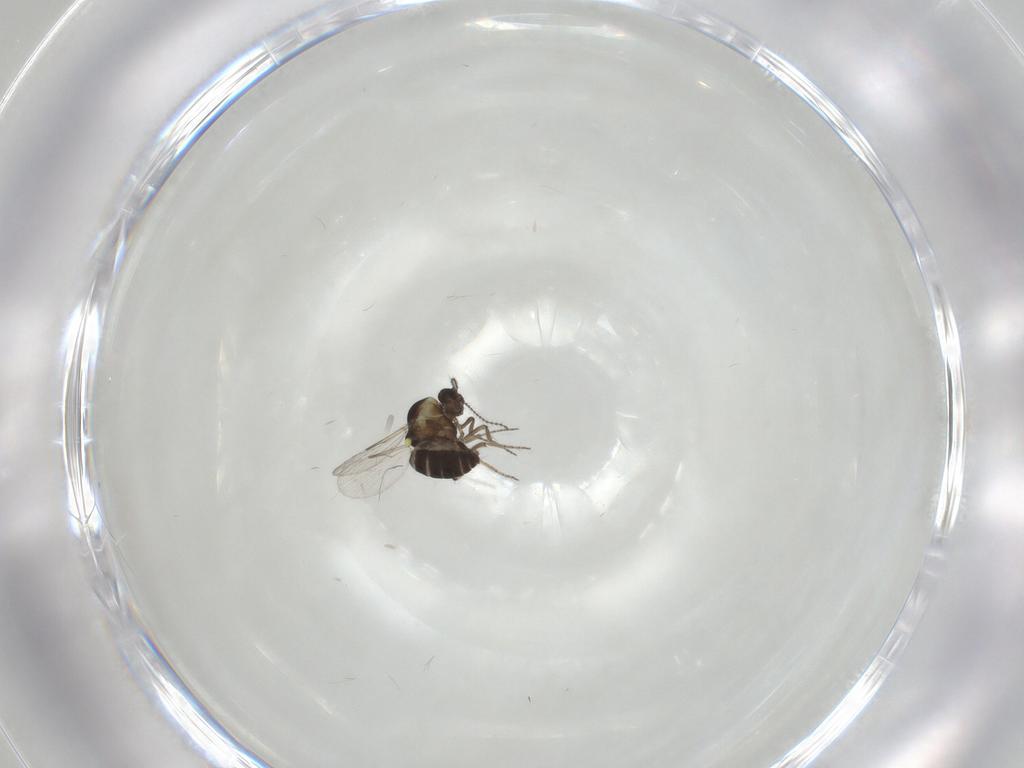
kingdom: Animalia
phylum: Arthropoda
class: Insecta
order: Diptera
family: Ceratopogonidae
